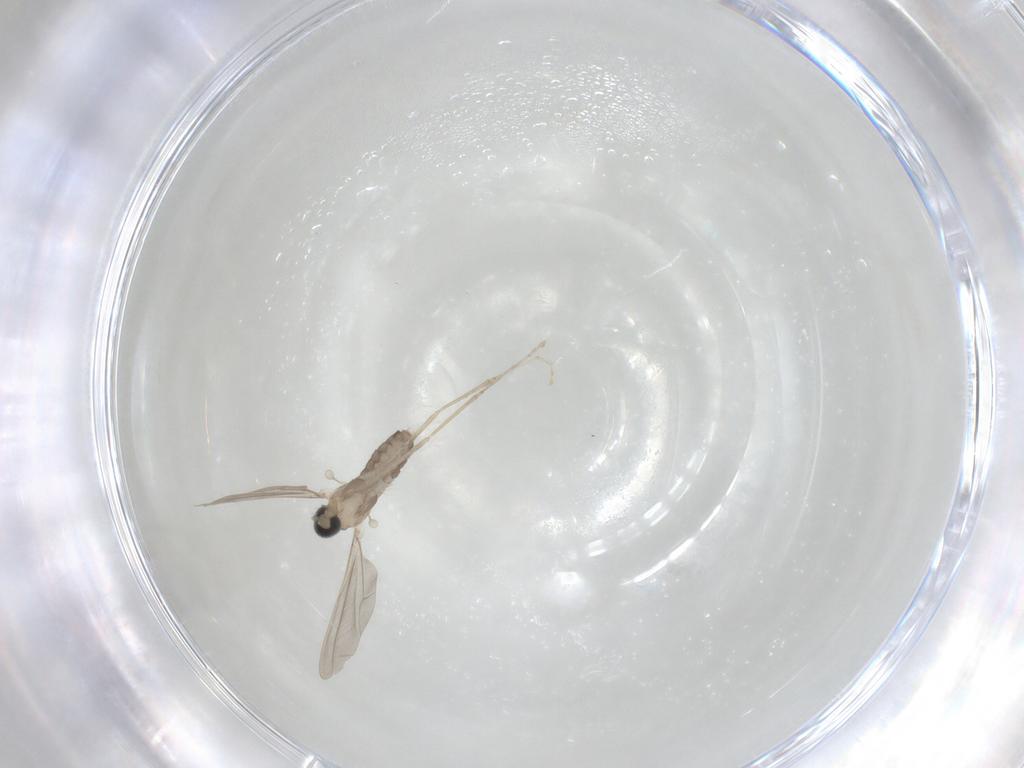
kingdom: Animalia
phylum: Arthropoda
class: Insecta
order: Diptera
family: Cecidomyiidae
